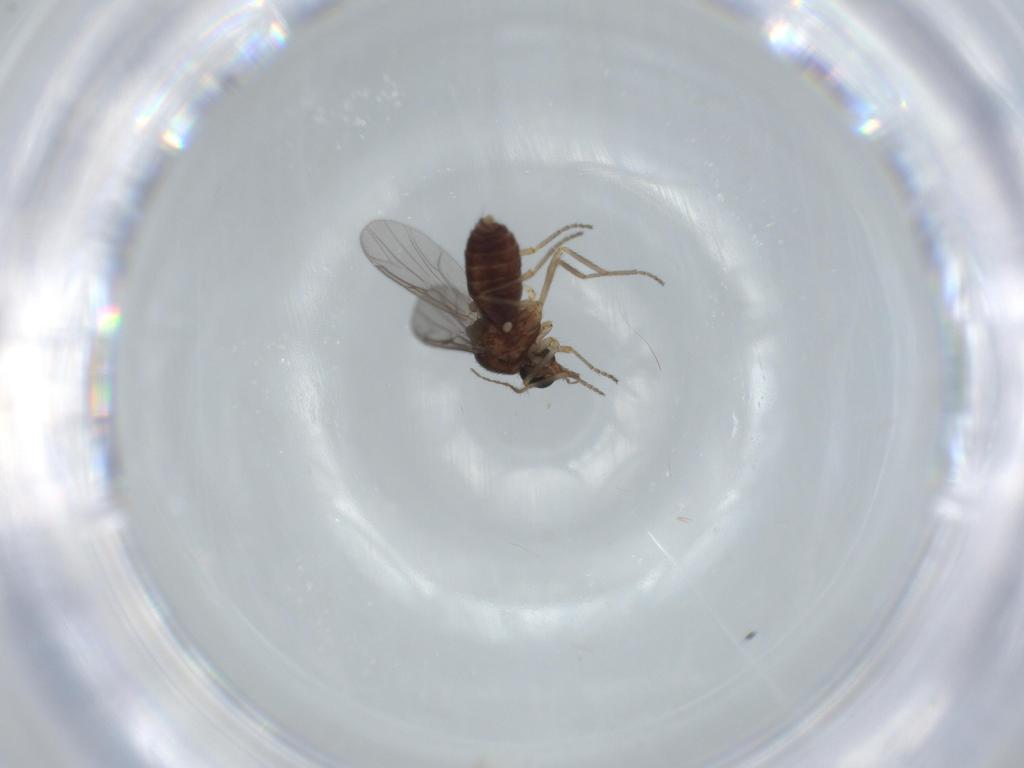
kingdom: Animalia
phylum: Arthropoda
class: Insecta
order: Diptera
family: Ceratopogonidae
